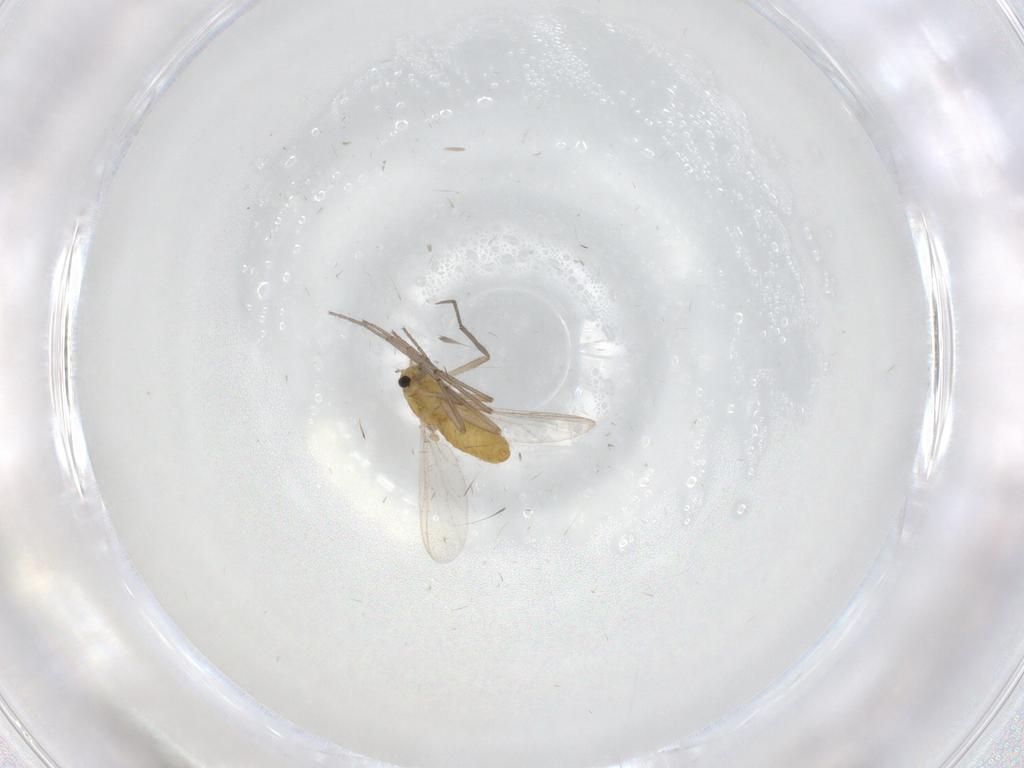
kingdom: Animalia
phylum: Arthropoda
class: Insecta
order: Diptera
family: Chironomidae
